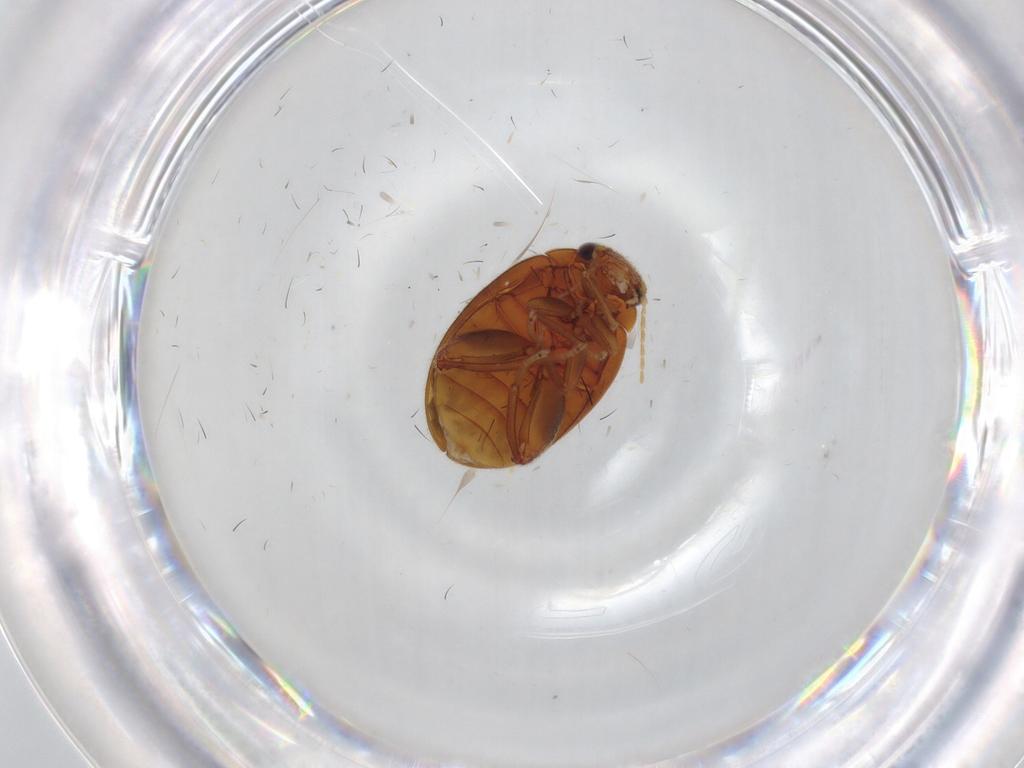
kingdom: Animalia
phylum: Arthropoda
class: Insecta
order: Coleoptera
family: Scirtidae
